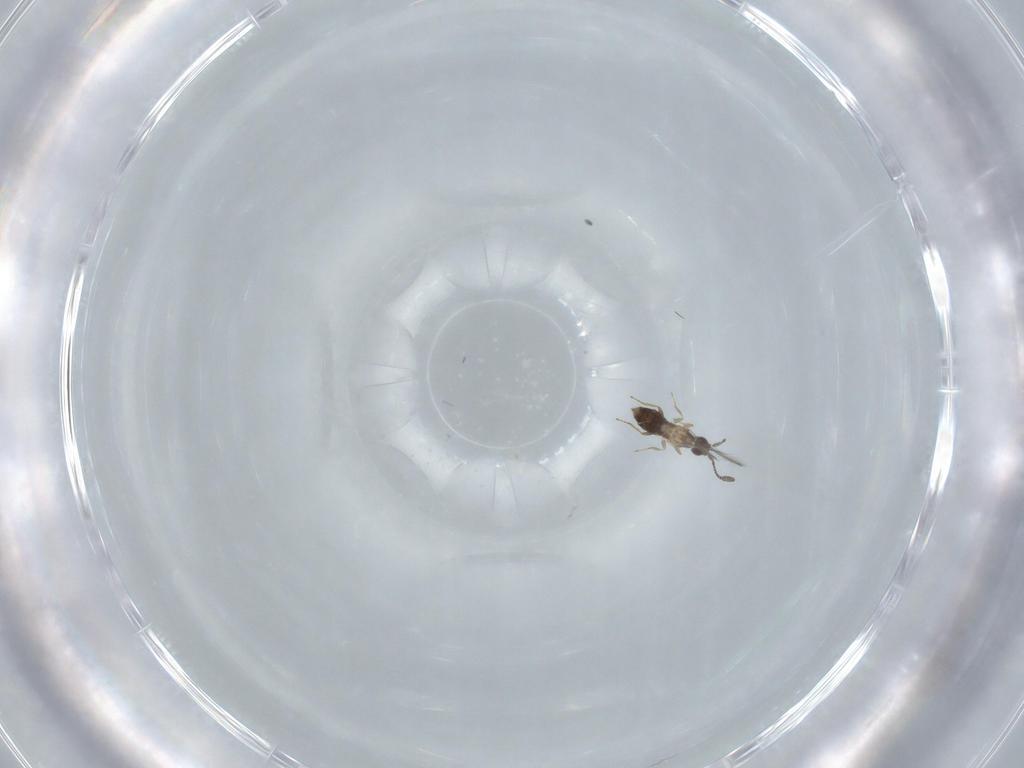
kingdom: Animalia
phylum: Arthropoda
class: Insecta
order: Hymenoptera
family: Mymaridae
